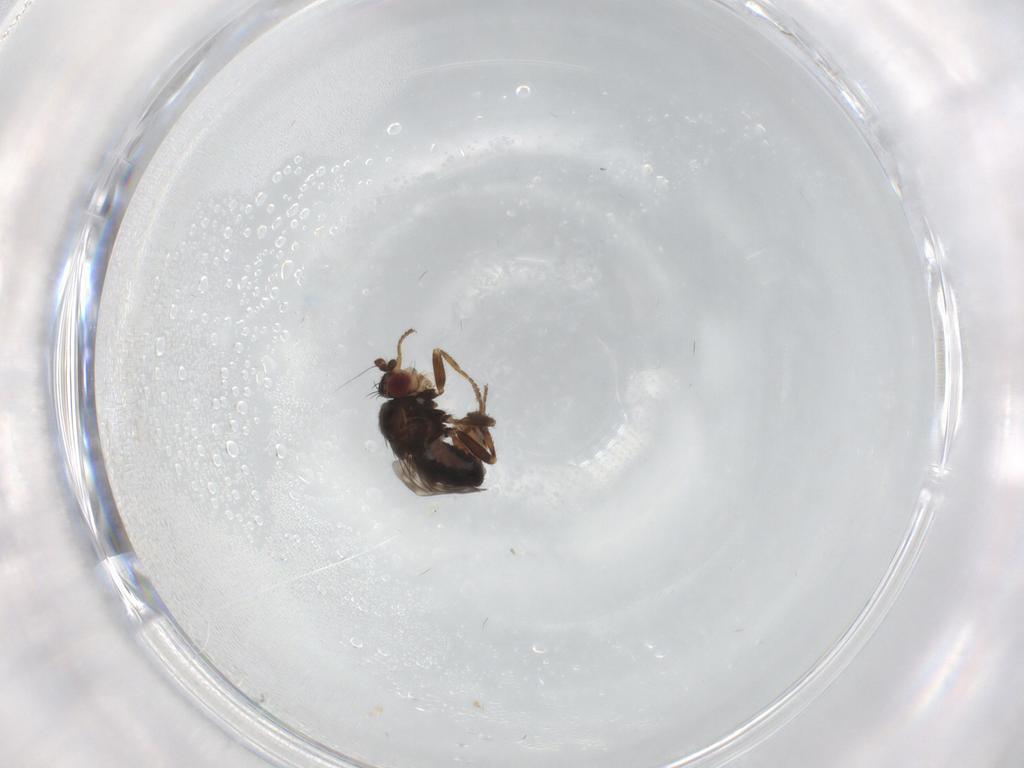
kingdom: Animalia
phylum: Arthropoda
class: Insecta
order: Diptera
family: Sphaeroceridae
